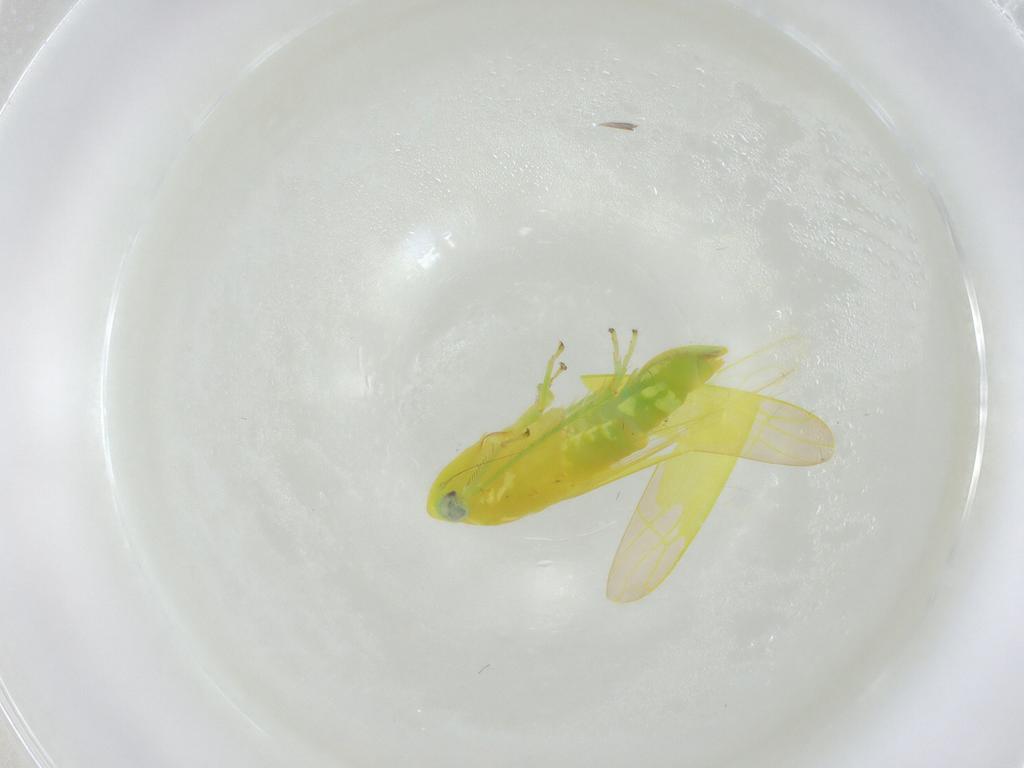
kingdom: Animalia
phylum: Arthropoda
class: Insecta
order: Hemiptera
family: Cicadellidae
